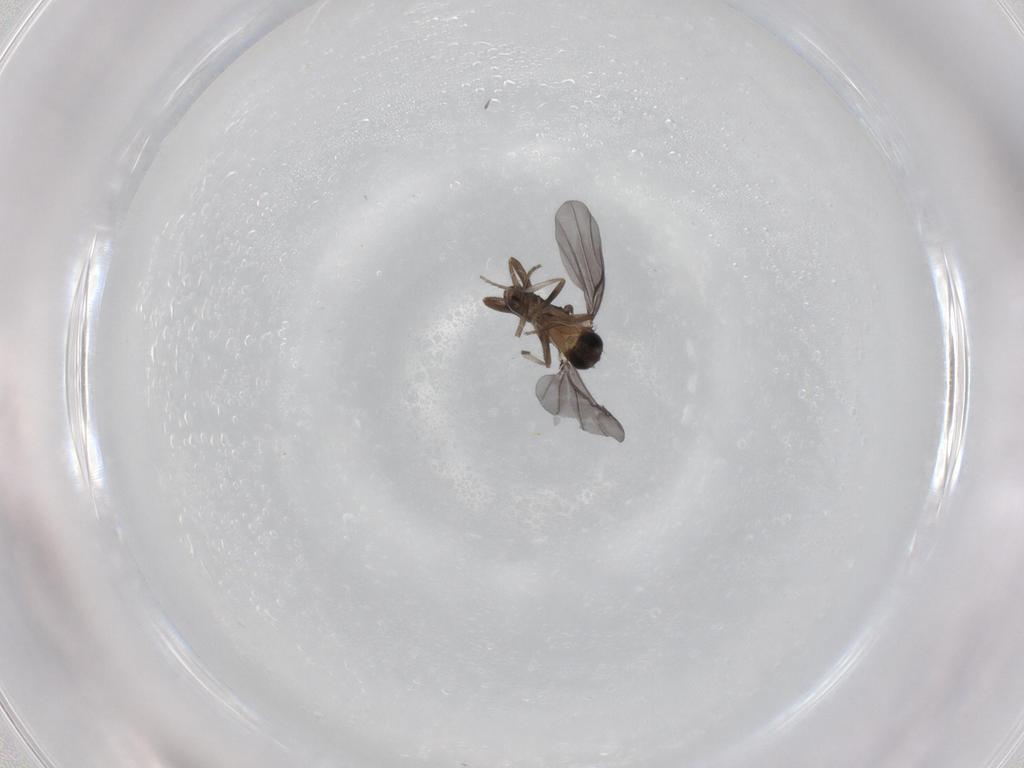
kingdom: Animalia
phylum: Arthropoda
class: Insecta
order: Diptera
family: Phoridae
